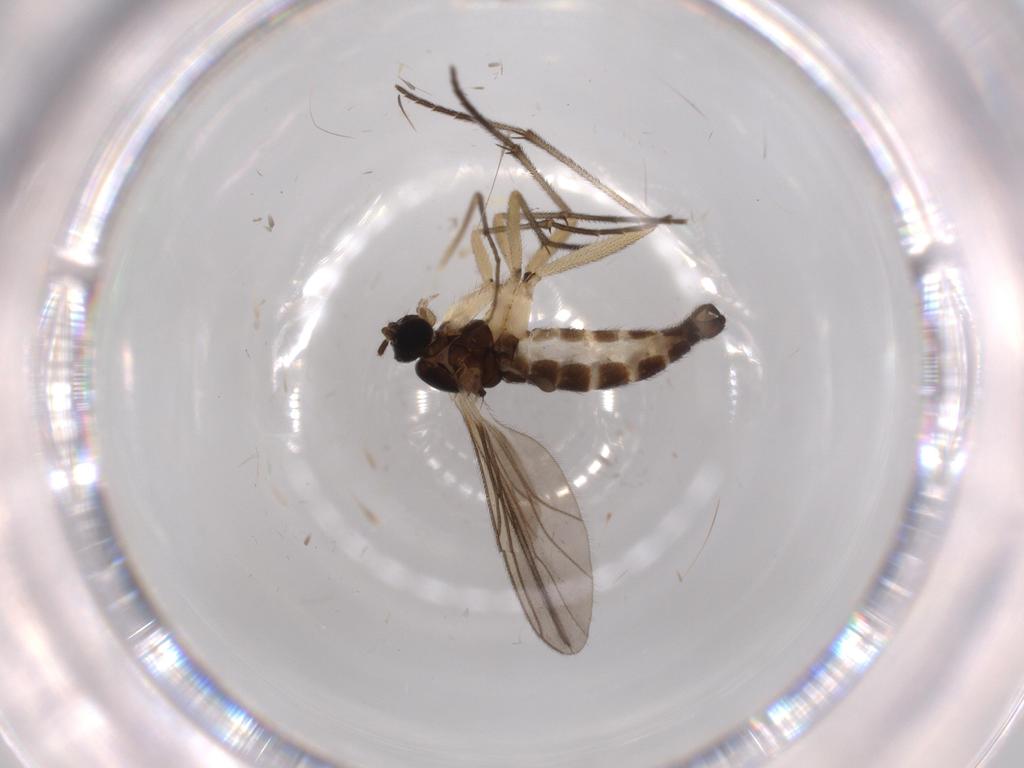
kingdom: Animalia
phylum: Arthropoda
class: Insecta
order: Diptera
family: Sciaridae
